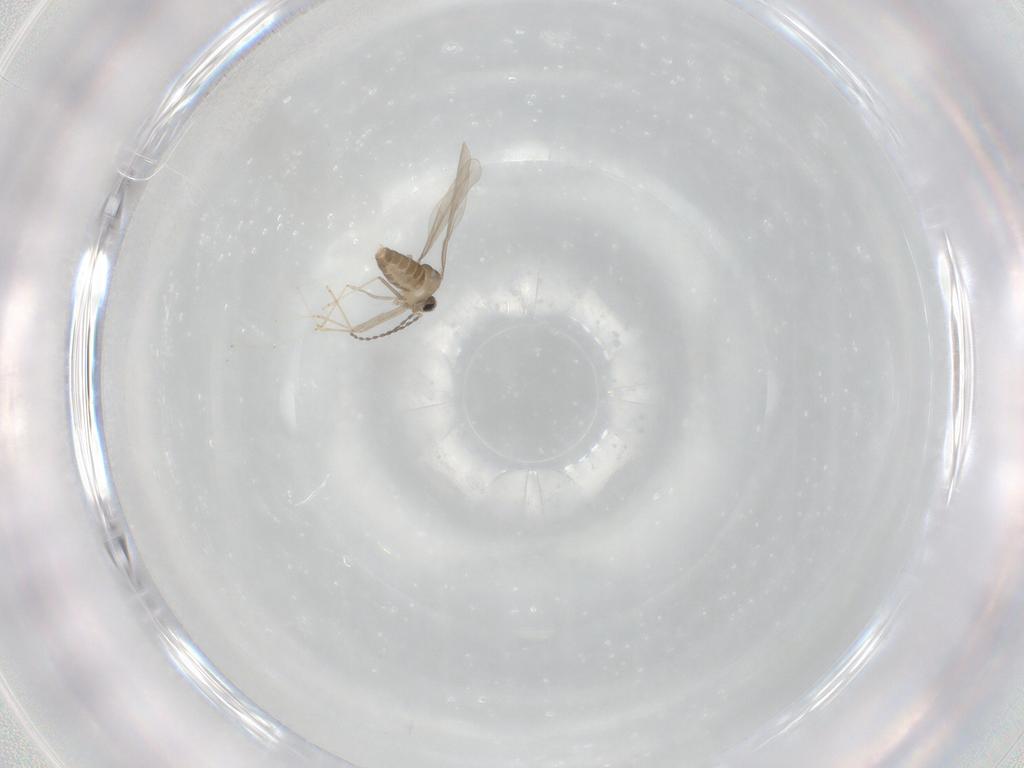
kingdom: Animalia
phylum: Arthropoda
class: Insecta
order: Diptera
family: Cecidomyiidae
